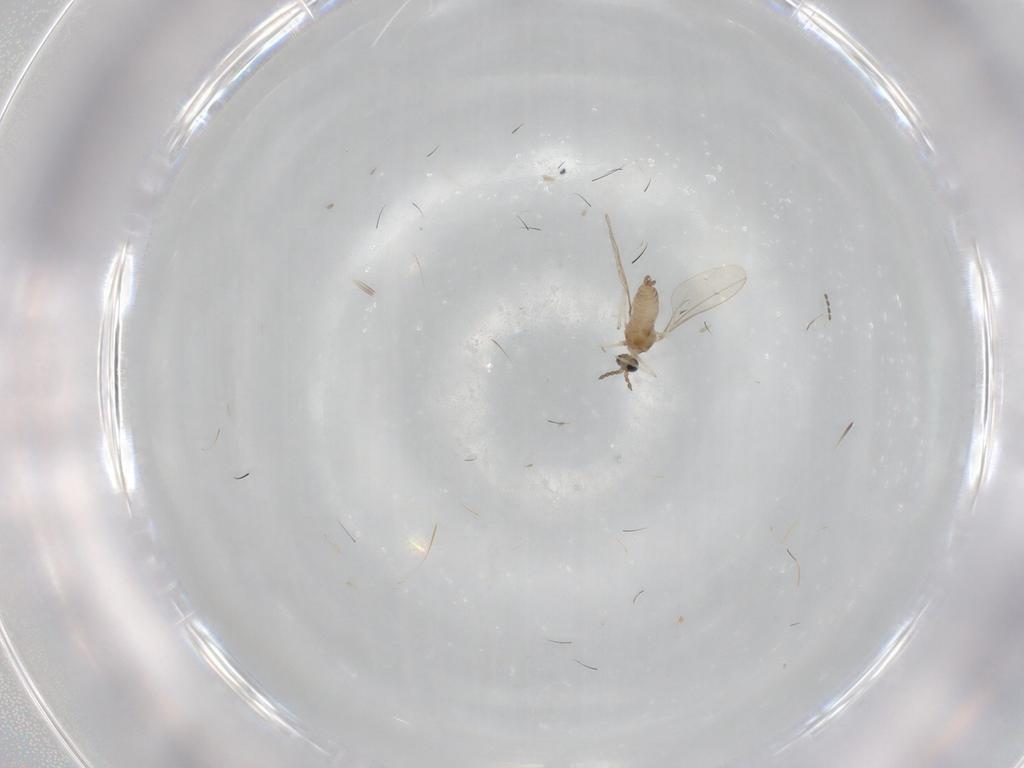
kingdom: Animalia
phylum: Arthropoda
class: Insecta
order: Diptera
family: Cecidomyiidae
